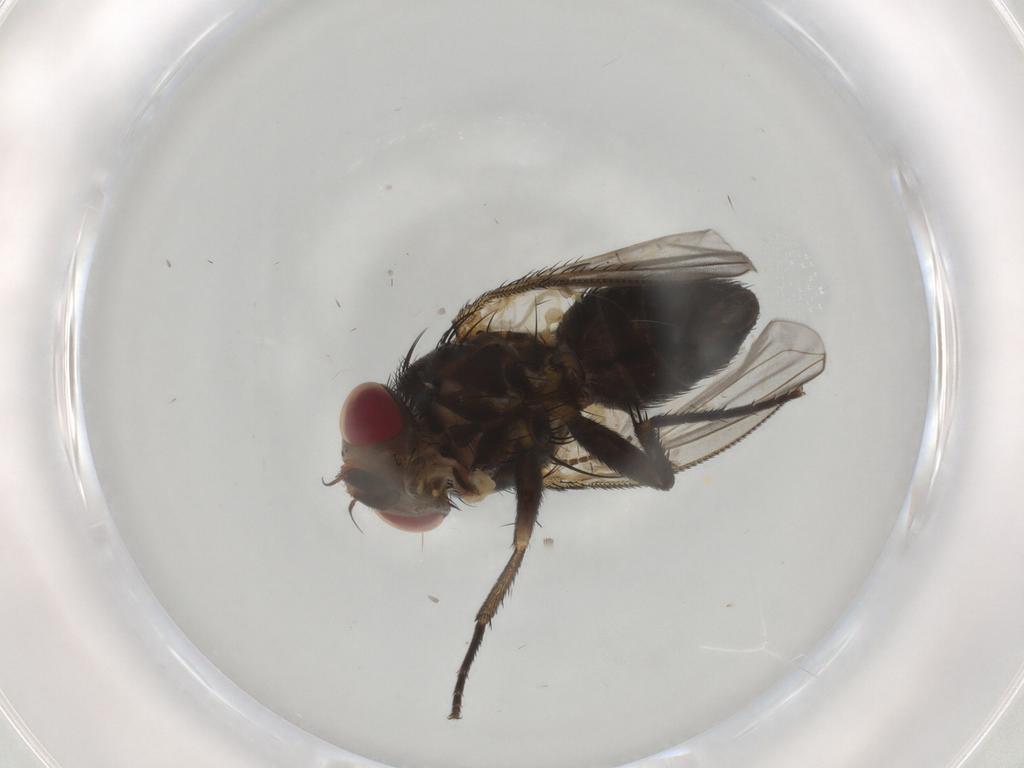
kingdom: Animalia
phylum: Arthropoda
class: Insecta
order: Diptera
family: Tachinidae
